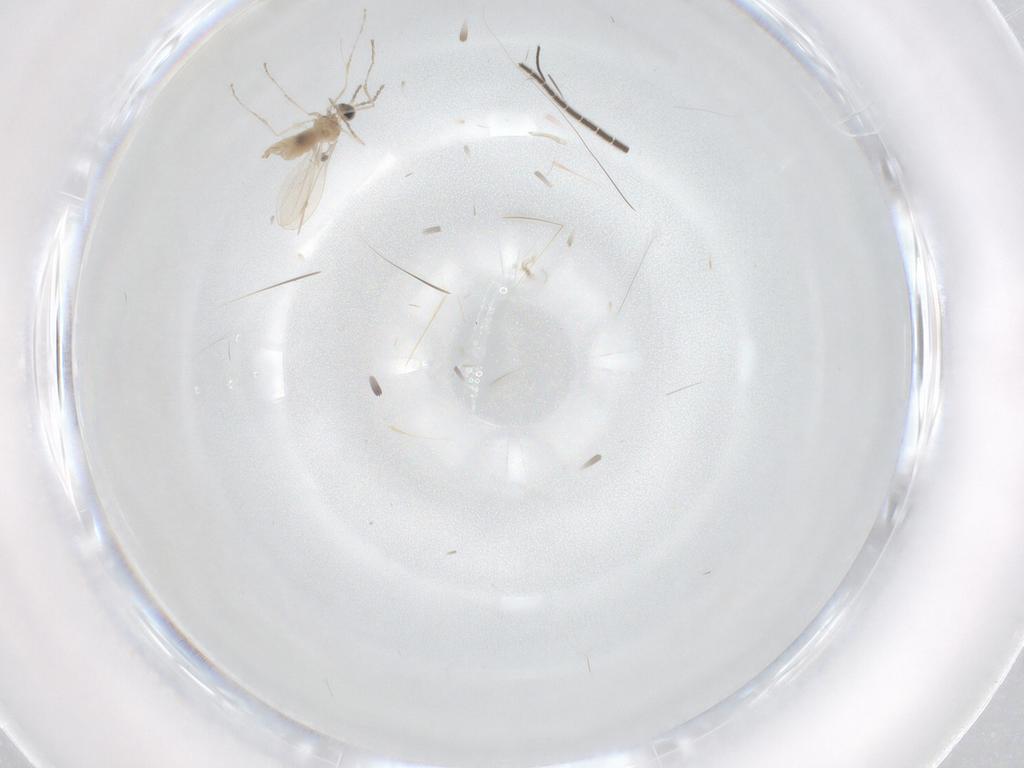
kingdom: Animalia
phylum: Arthropoda
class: Insecta
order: Diptera
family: Cecidomyiidae
